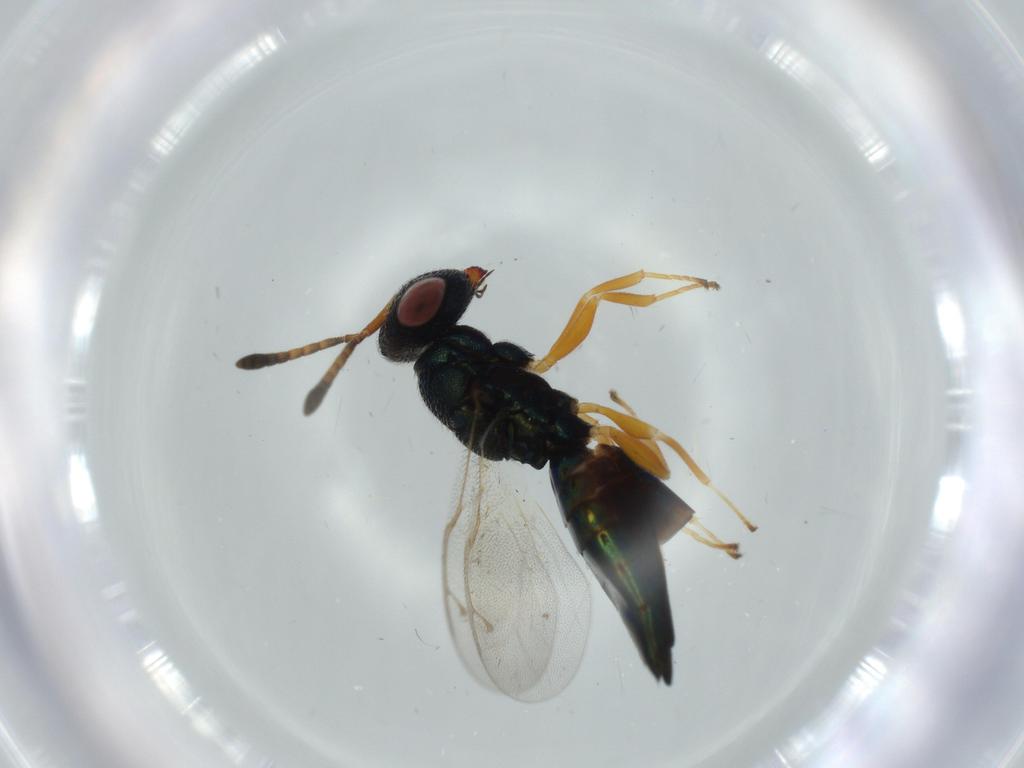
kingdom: Animalia
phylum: Arthropoda
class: Insecta
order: Hymenoptera
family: Pteromalidae
